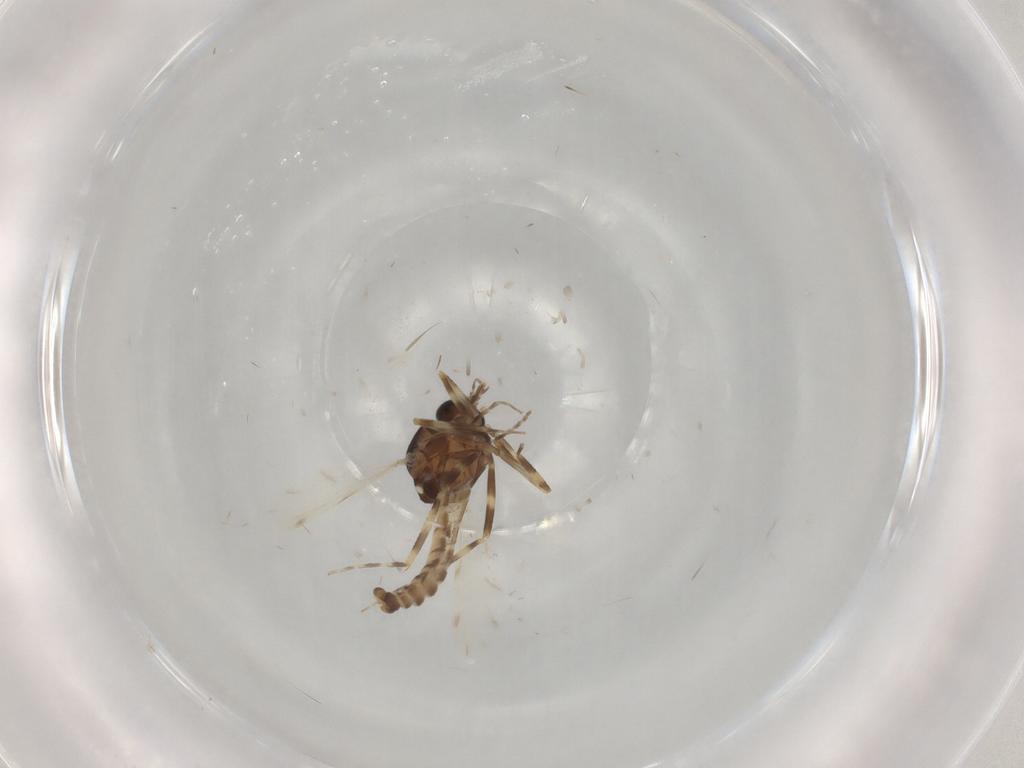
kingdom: Animalia
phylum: Arthropoda
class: Insecta
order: Diptera
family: Ceratopogonidae
